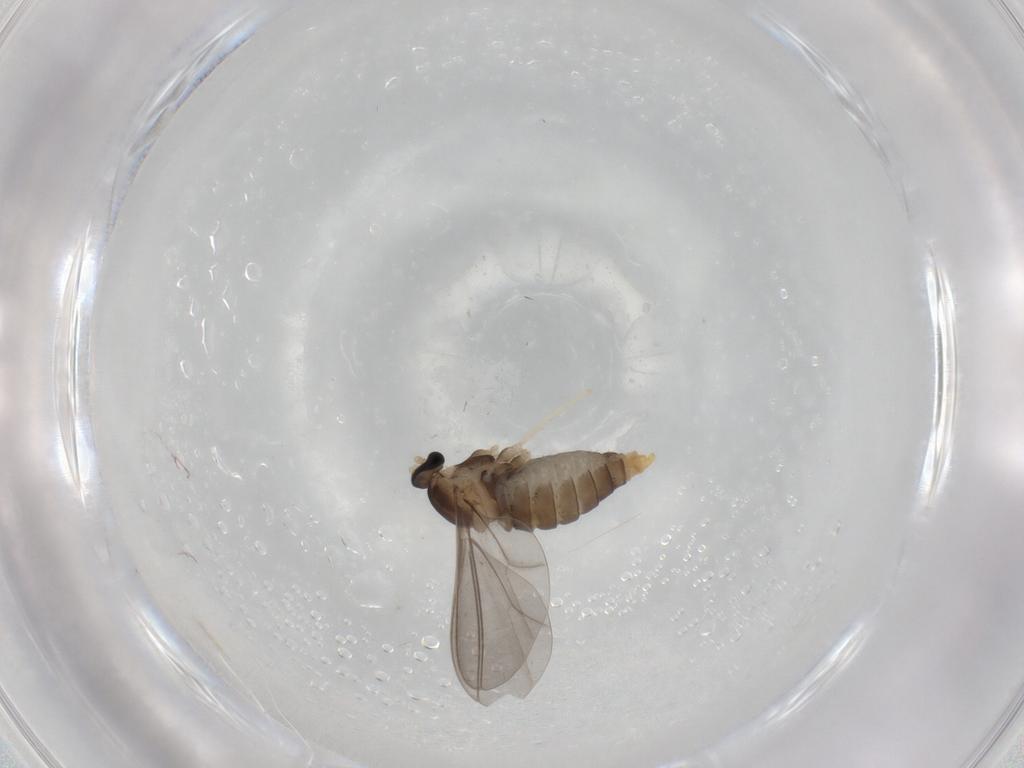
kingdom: Animalia
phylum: Arthropoda
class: Insecta
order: Diptera
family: Cecidomyiidae
